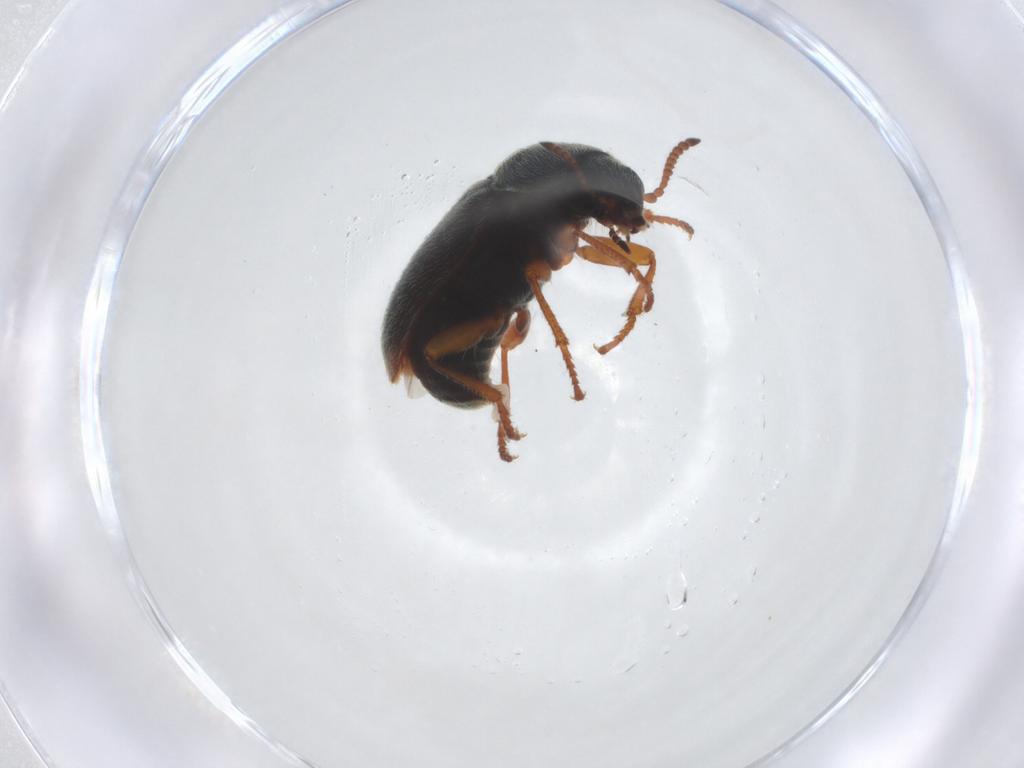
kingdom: Animalia
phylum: Arthropoda
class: Insecta
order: Coleoptera
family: Melyridae
